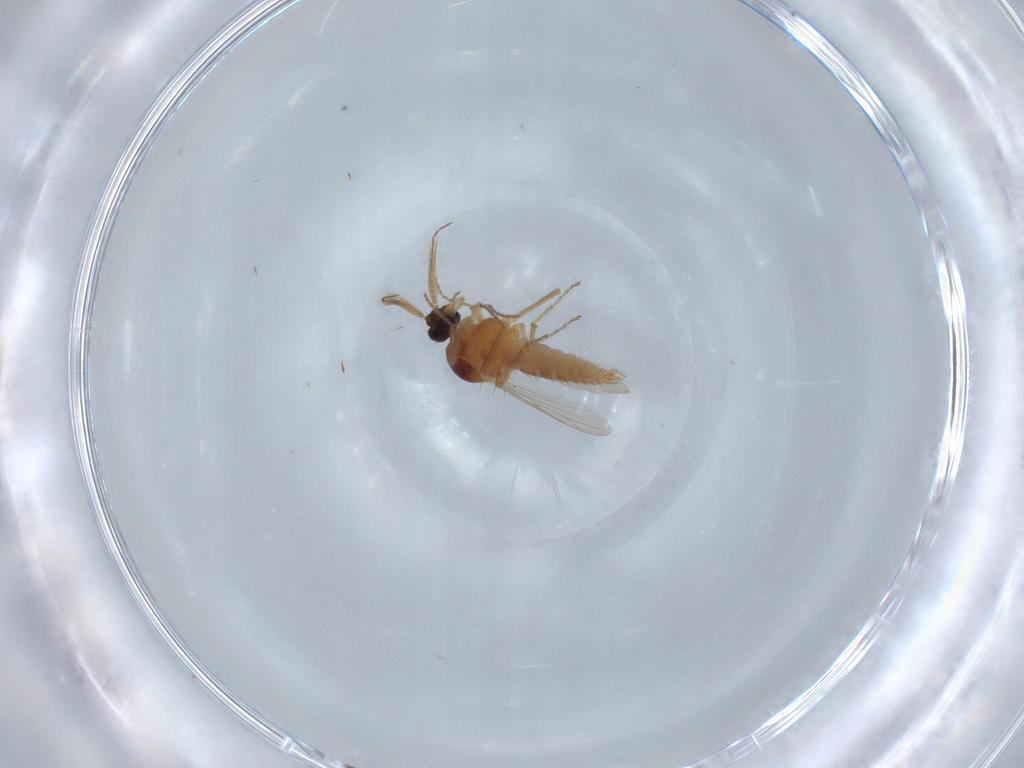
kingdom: Animalia
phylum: Arthropoda
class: Insecta
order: Diptera
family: Ceratopogonidae
